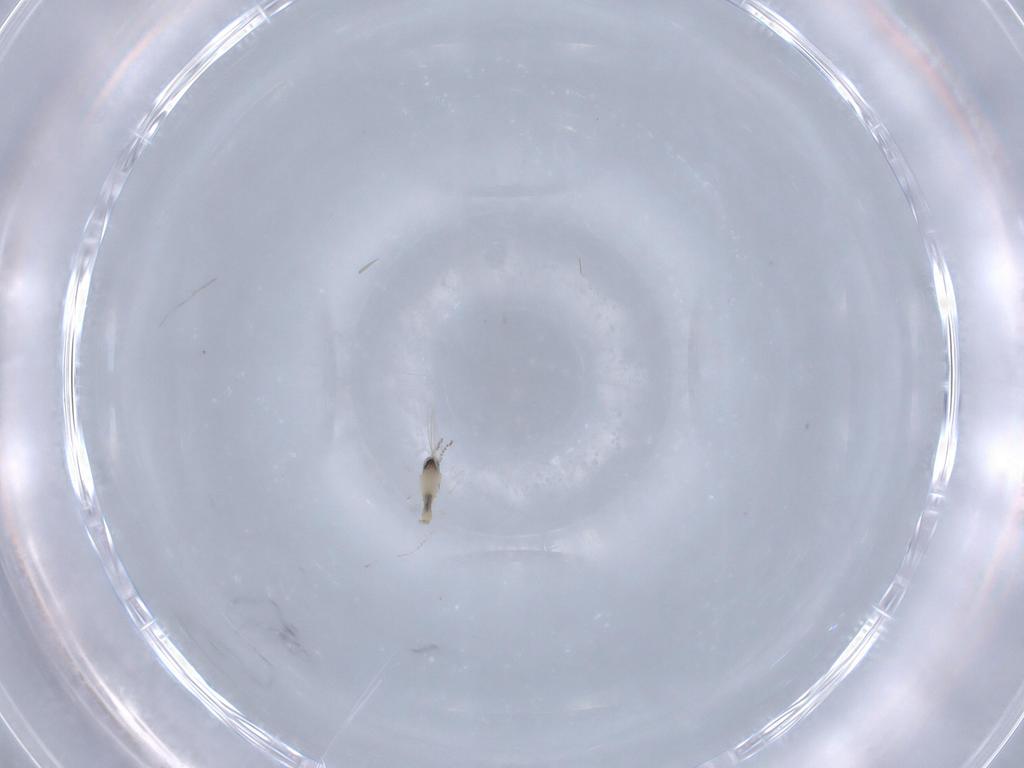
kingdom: Animalia
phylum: Arthropoda
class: Insecta
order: Diptera
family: Cecidomyiidae
